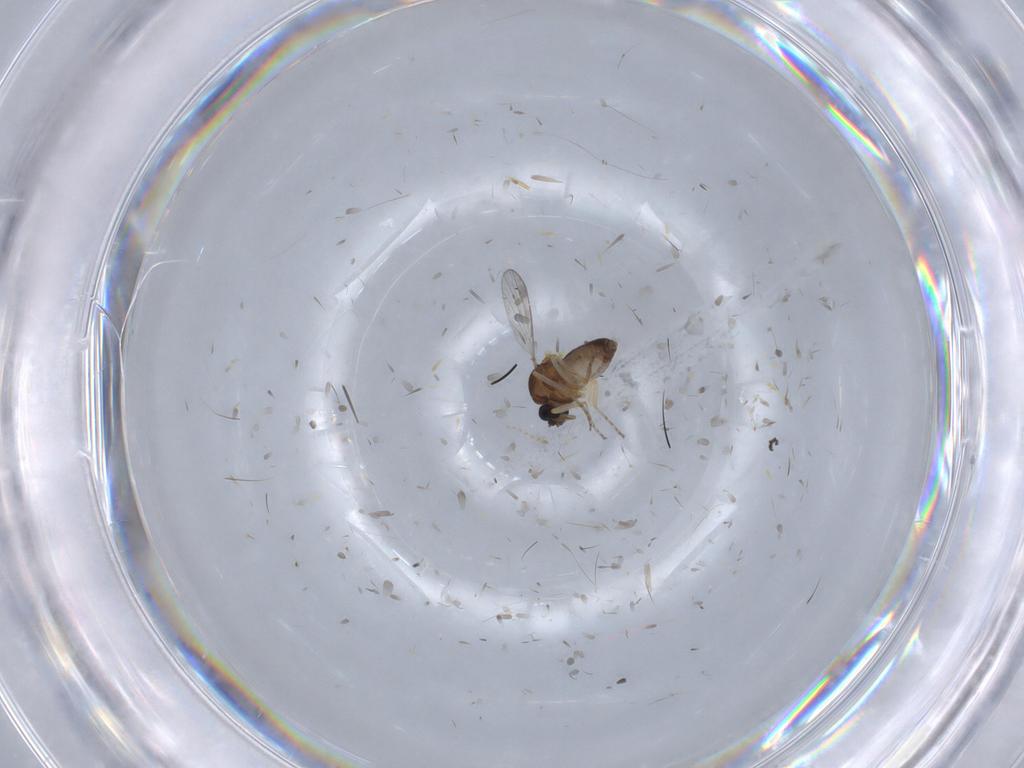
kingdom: Animalia
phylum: Arthropoda
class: Insecta
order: Diptera
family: Ceratopogonidae
